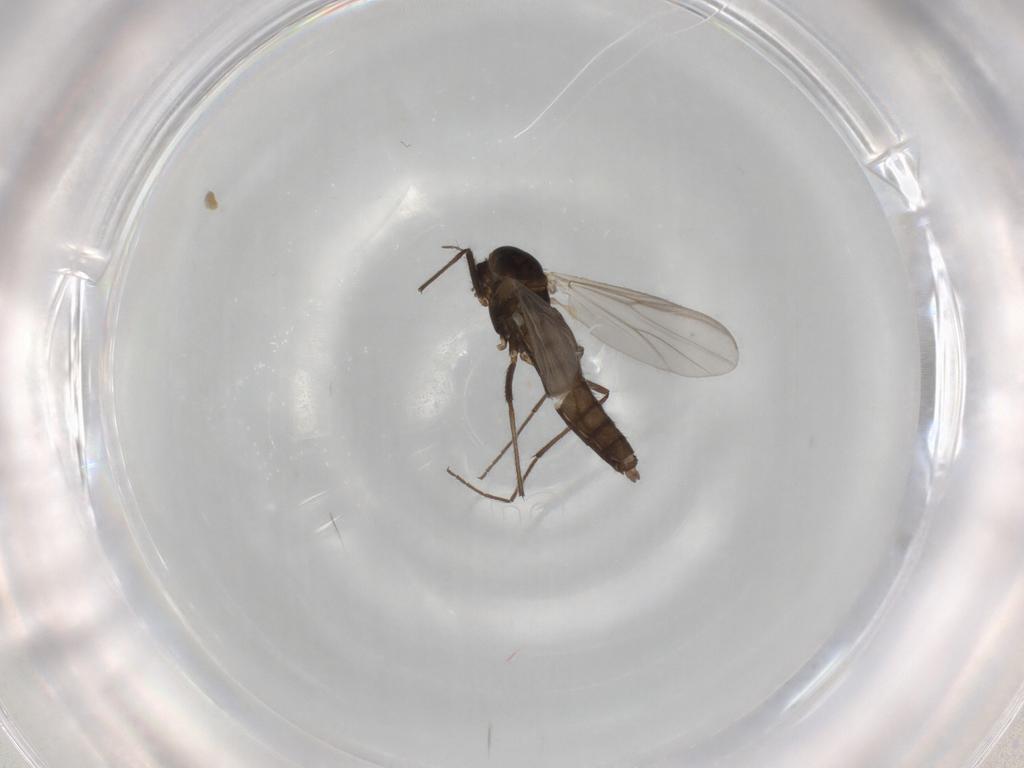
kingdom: Animalia
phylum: Arthropoda
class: Insecta
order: Diptera
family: Chironomidae
